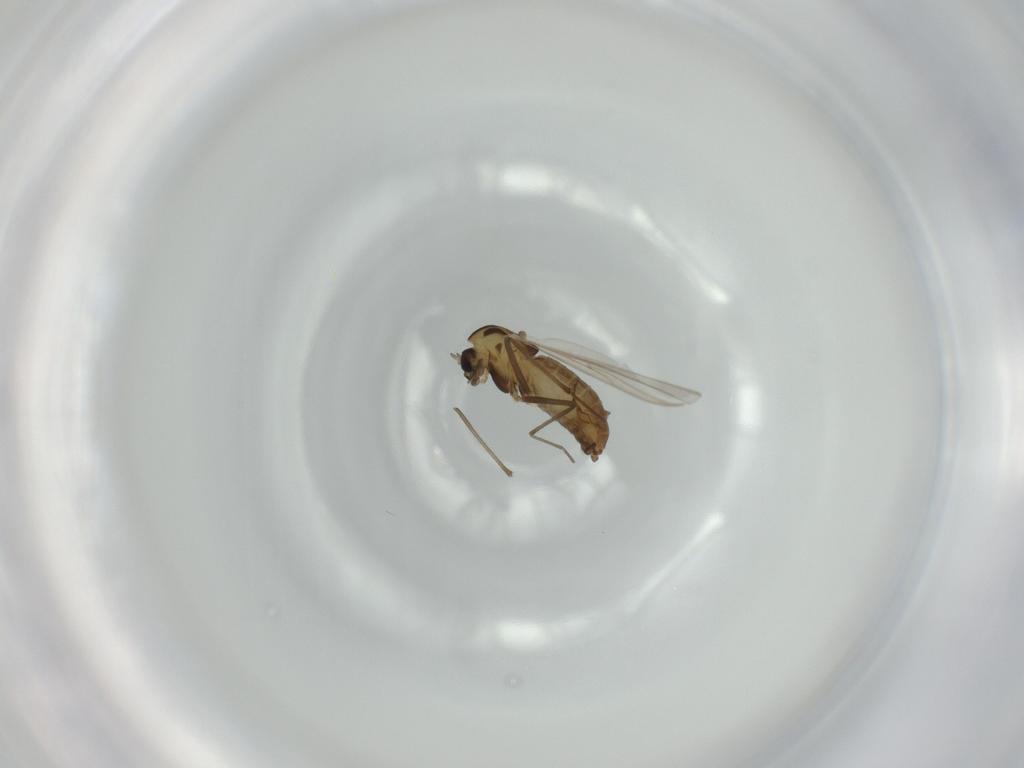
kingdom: Animalia
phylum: Arthropoda
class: Insecta
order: Diptera
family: Chironomidae
